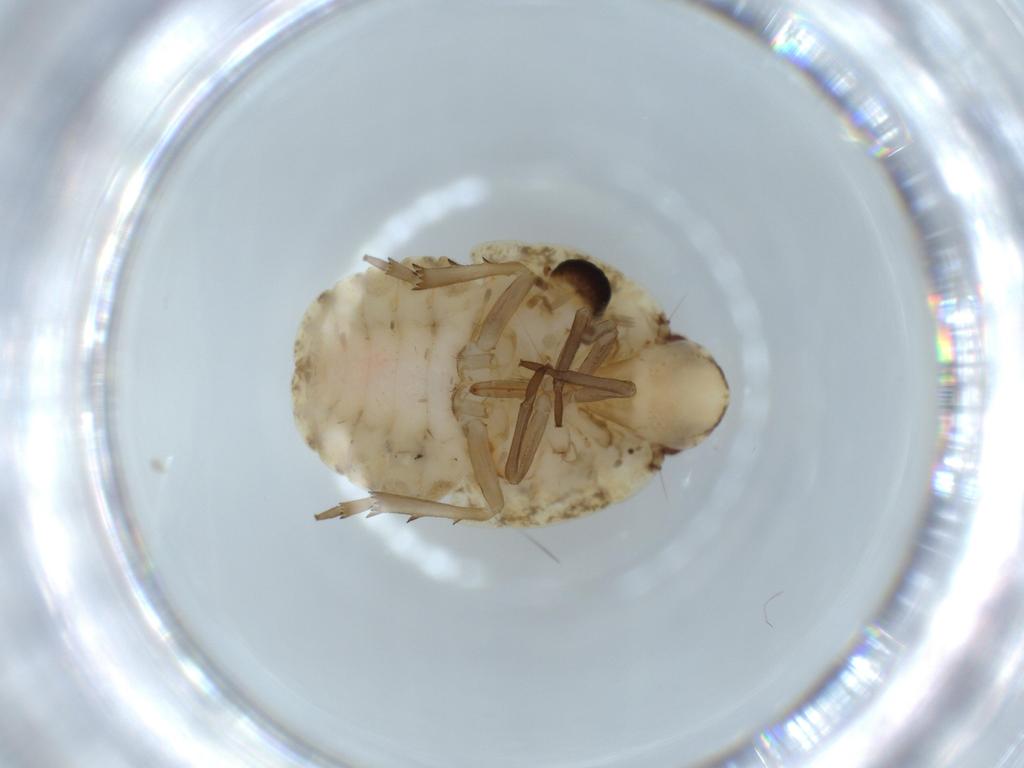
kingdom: Animalia
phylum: Arthropoda
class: Insecta
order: Hemiptera
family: Flatidae
